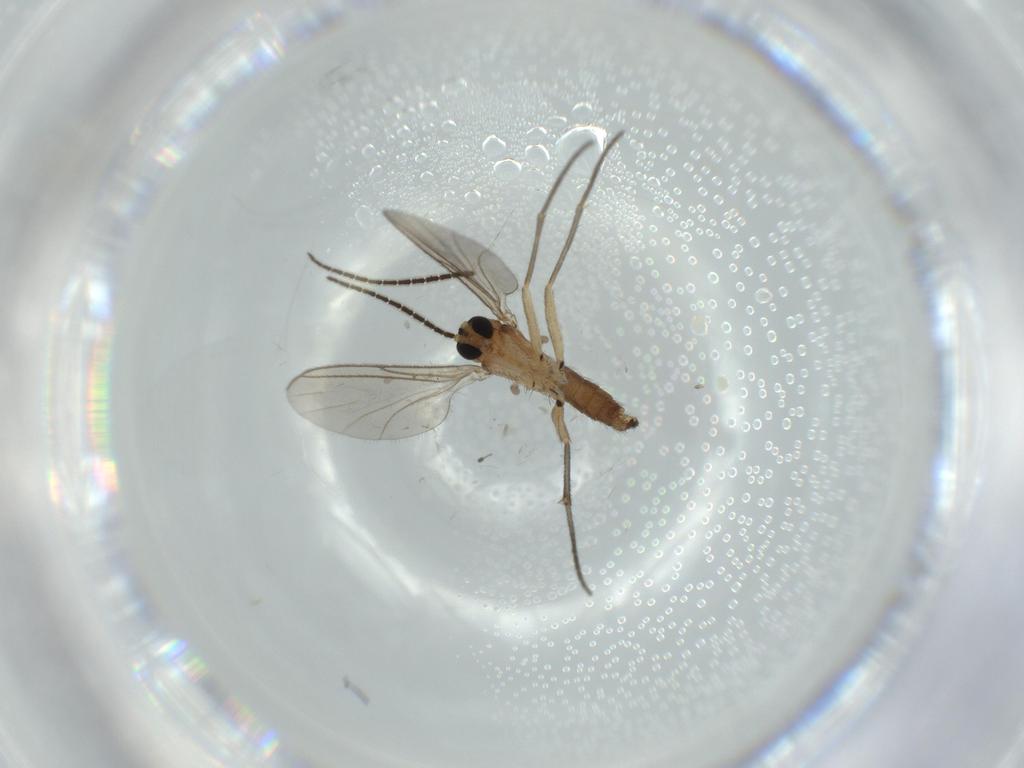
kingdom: Animalia
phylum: Arthropoda
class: Insecta
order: Diptera
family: Sciaridae
